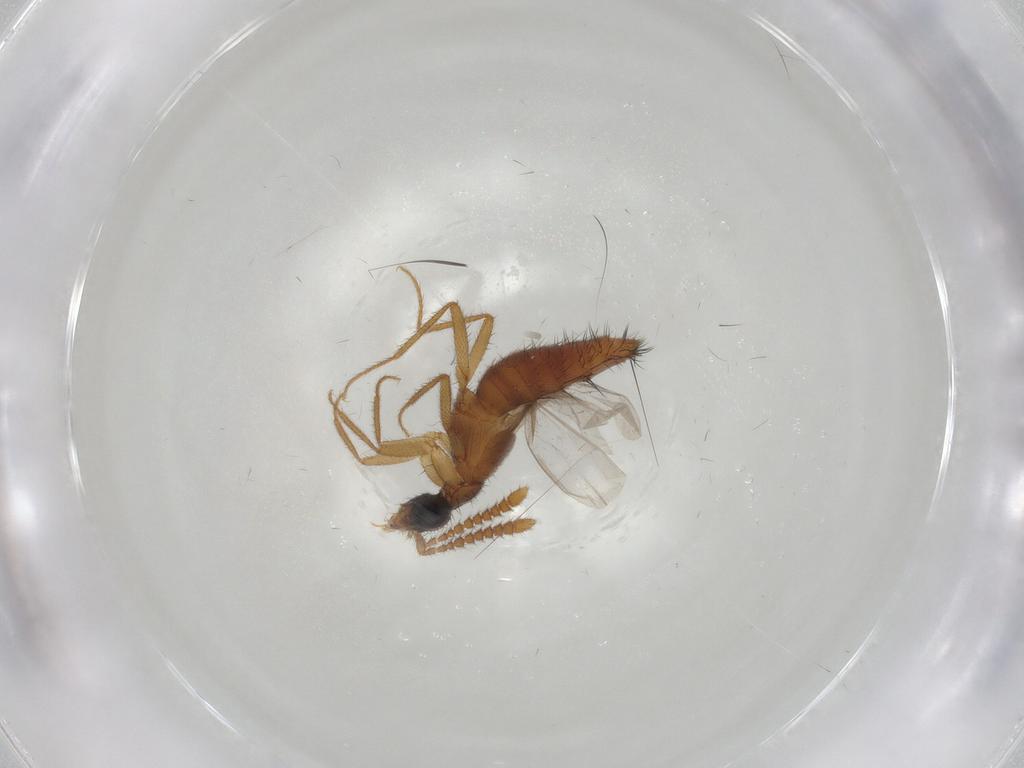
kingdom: Animalia
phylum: Arthropoda
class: Insecta
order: Coleoptera
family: Staphylinidae
